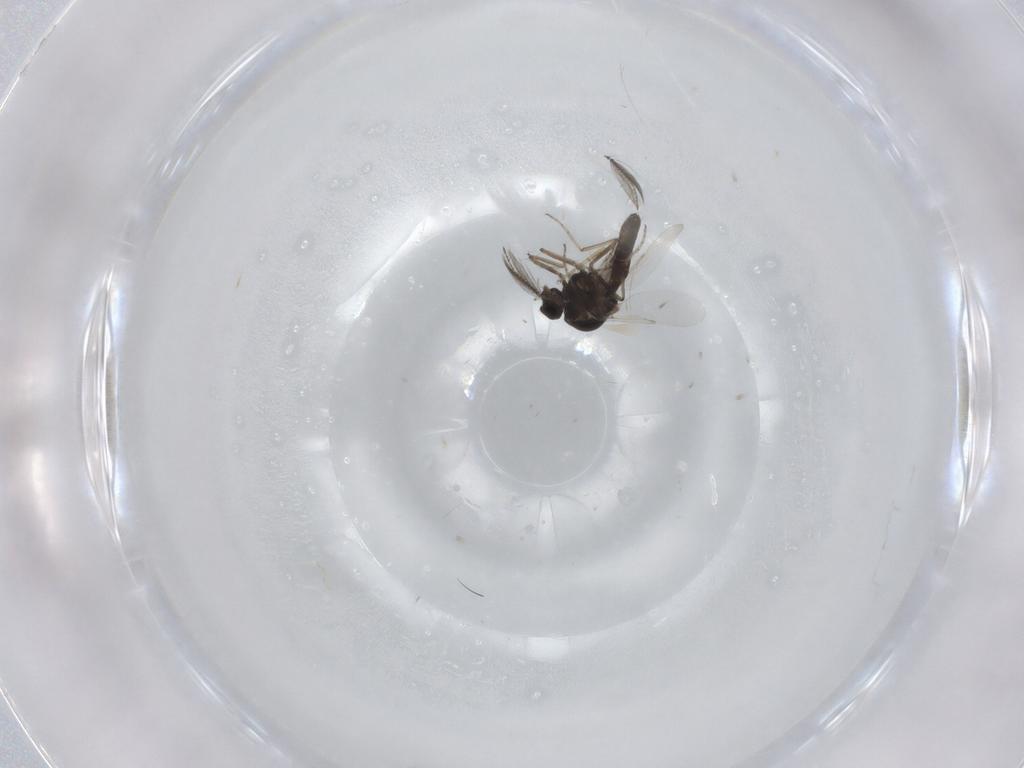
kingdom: Animalia
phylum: Arthropoda
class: Insecta
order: Diptera
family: Ceratopogonidae
